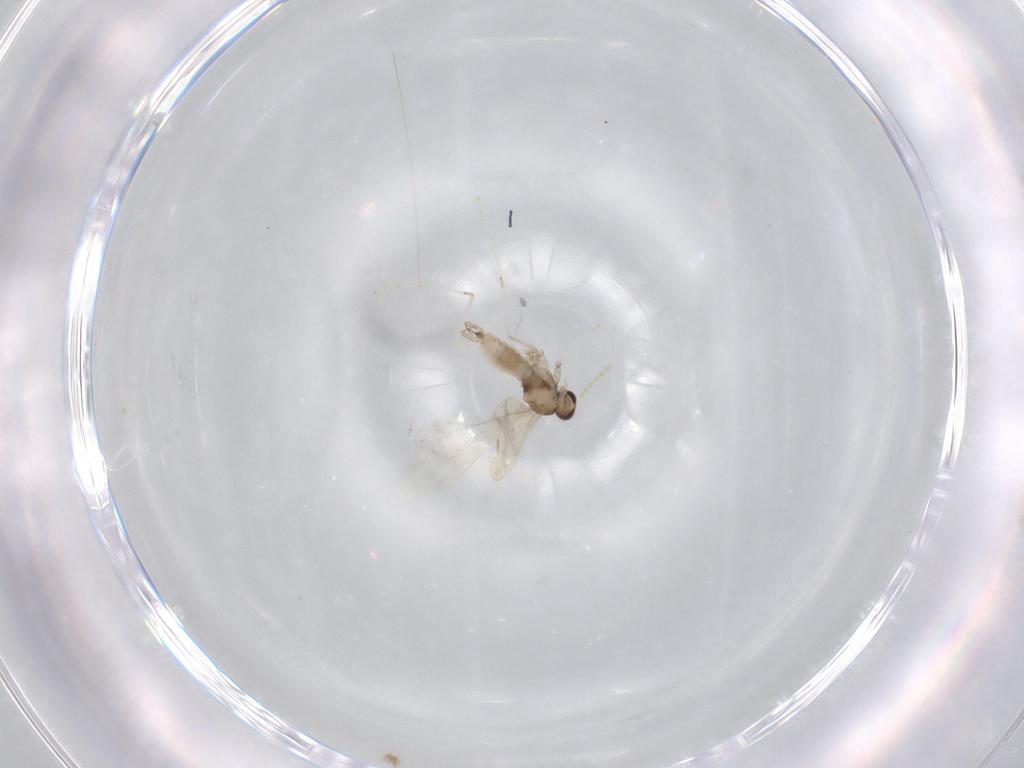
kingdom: Animalia
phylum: Arthropoda
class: Insecta
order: Diptera
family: Cecidomyiidae
